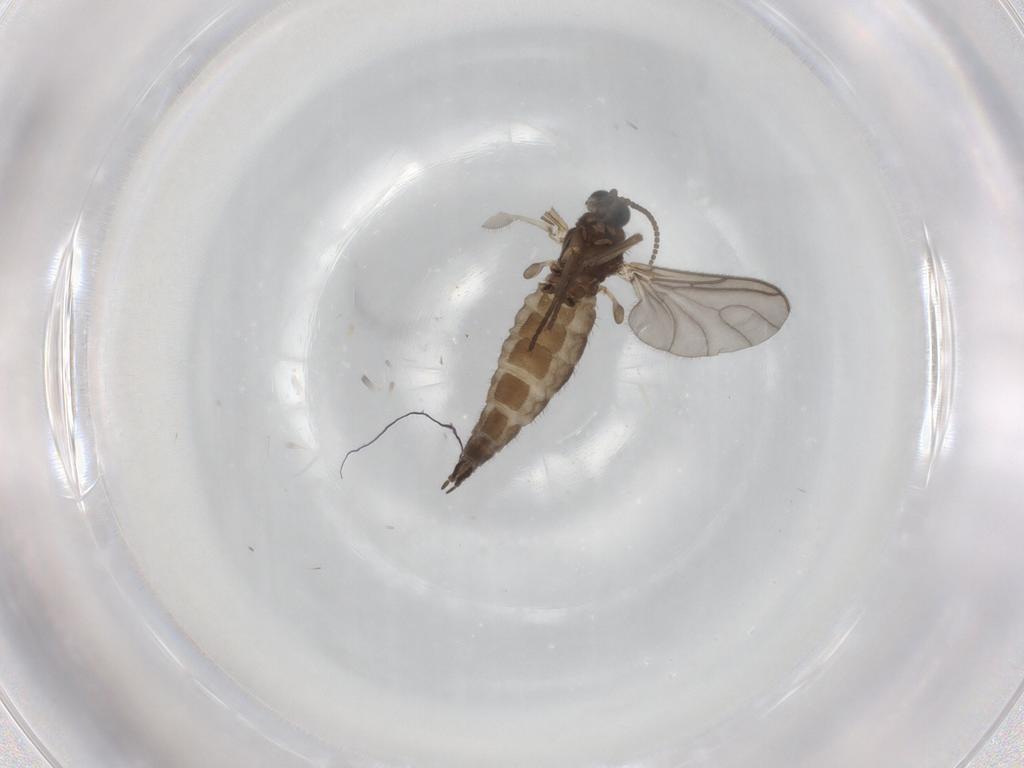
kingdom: Animalia
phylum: Arthropoda
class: Insecta
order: Diptera
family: Sciaridae
